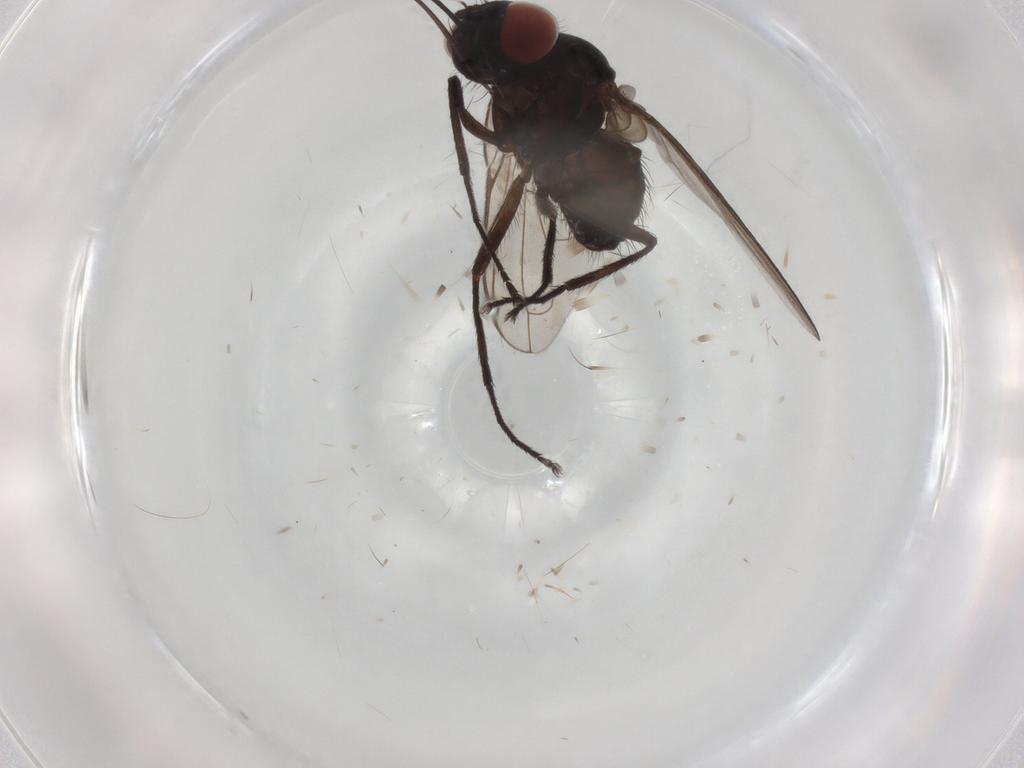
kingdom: Animalia
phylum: Arthropoda
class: Insecta
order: Diptera
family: Tachinidae
